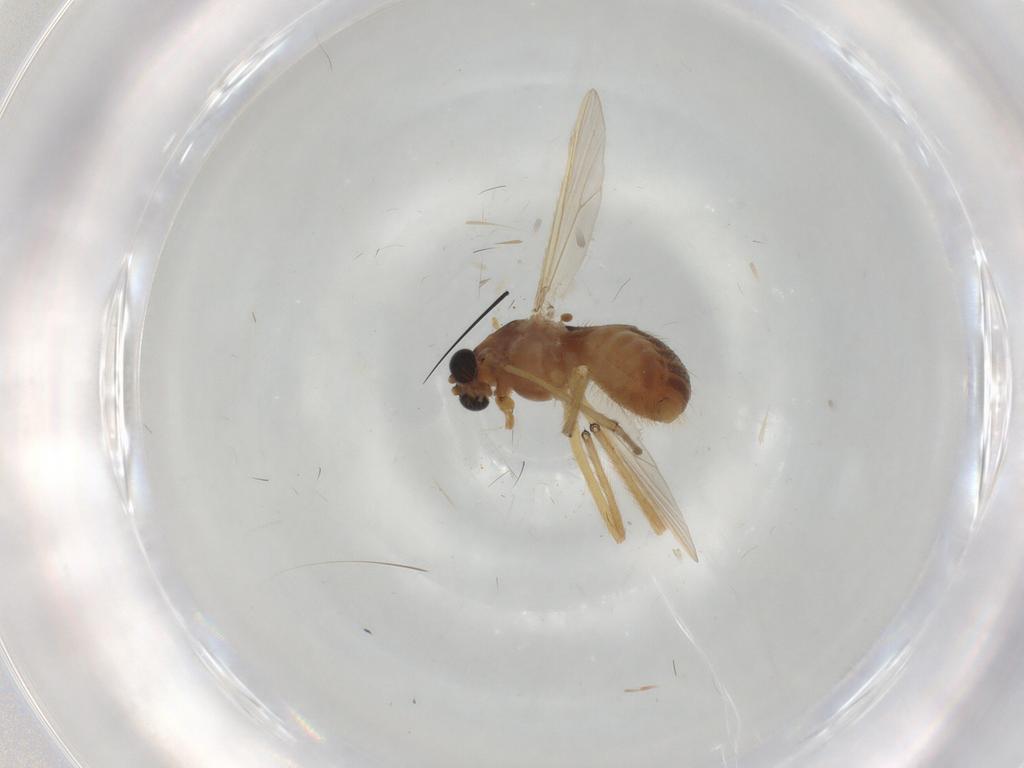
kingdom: Animalia
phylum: Arthropoda
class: Insecta
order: Diptera
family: Chironomidae
